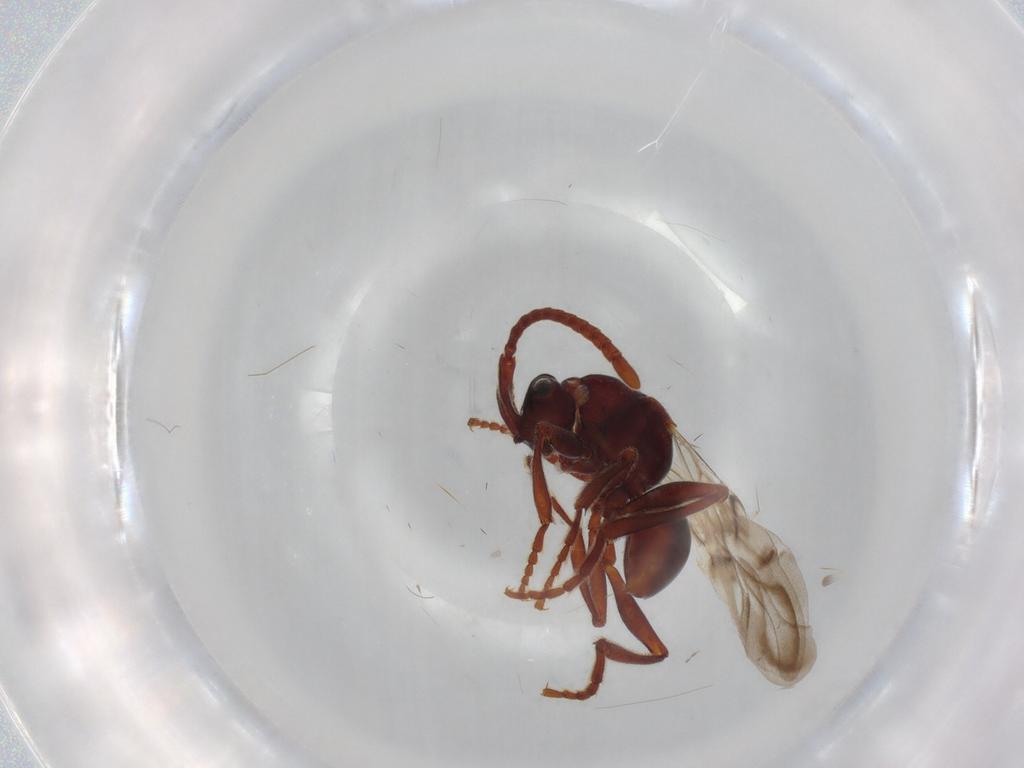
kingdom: Animalia
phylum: Arthropoda
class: Insecta
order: Hymenoptera
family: Chrysididae
